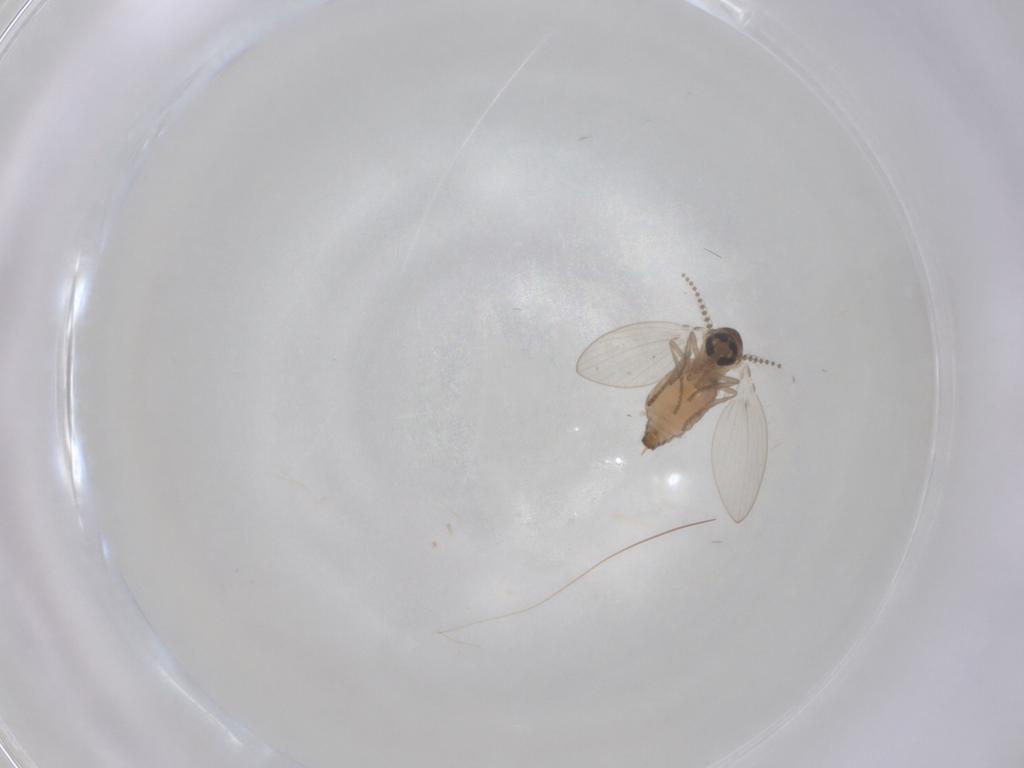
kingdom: Animalia
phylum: Arthropoda
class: Insecta
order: Diptera
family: Psychodidae
